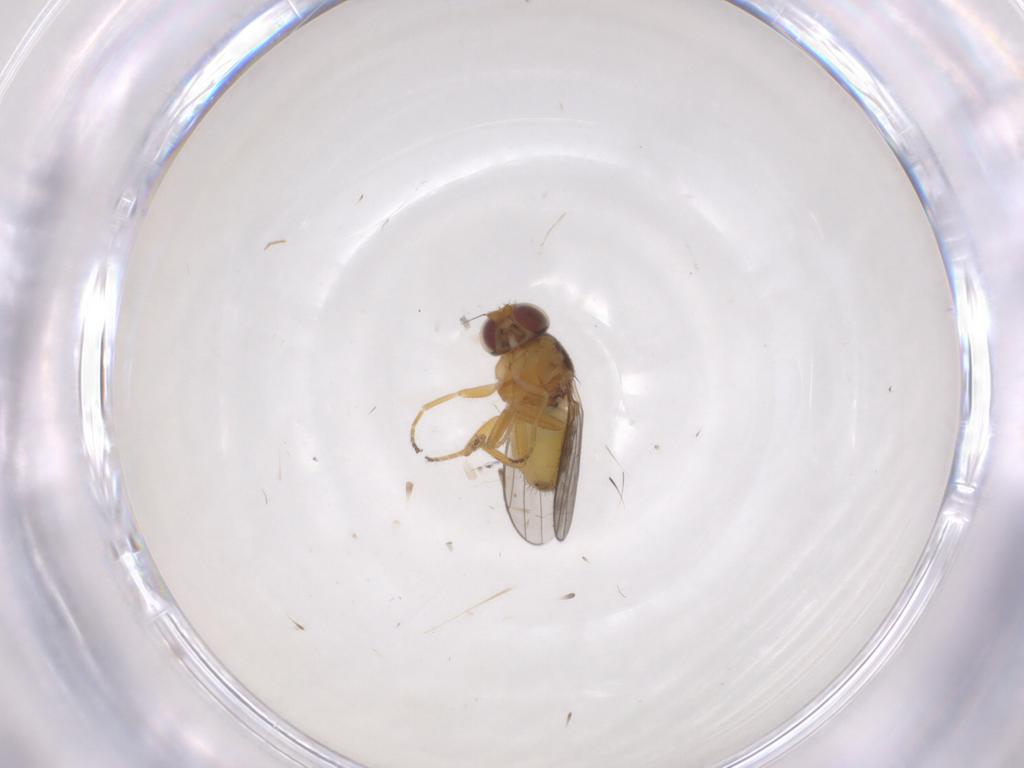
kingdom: Animalia
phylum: Arthropoda
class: Insecta
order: Diptera
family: Chloropidae
